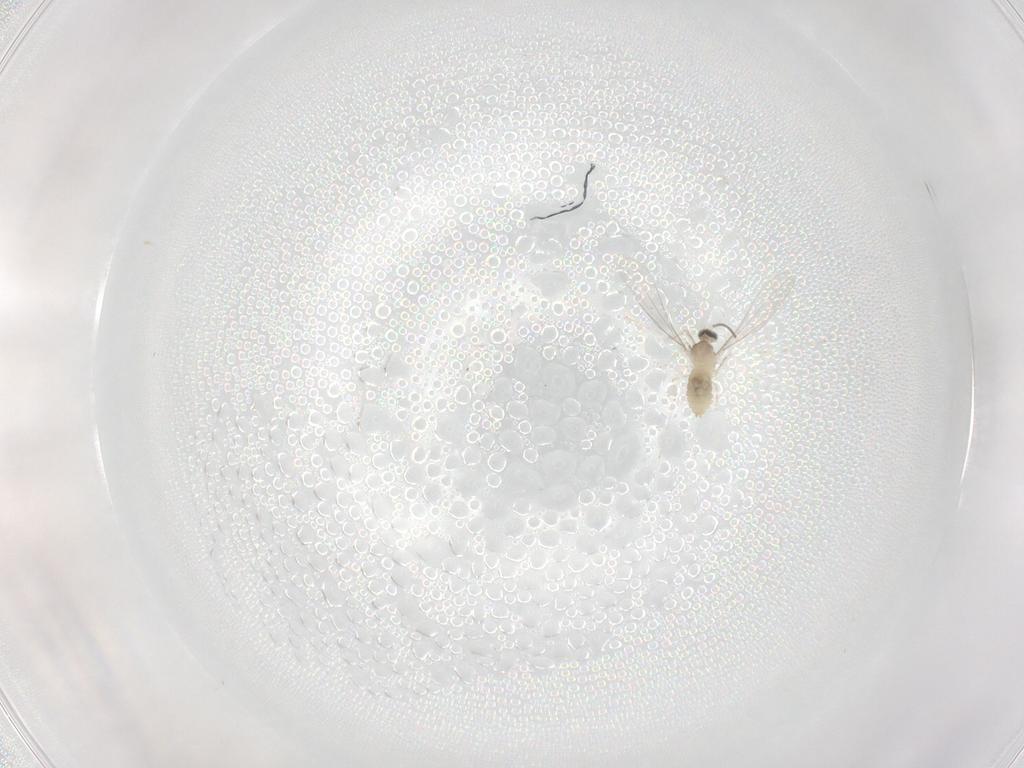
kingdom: Animalia
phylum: Arthropoda
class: Insecta
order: Diptera
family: Cecidomyiidae
